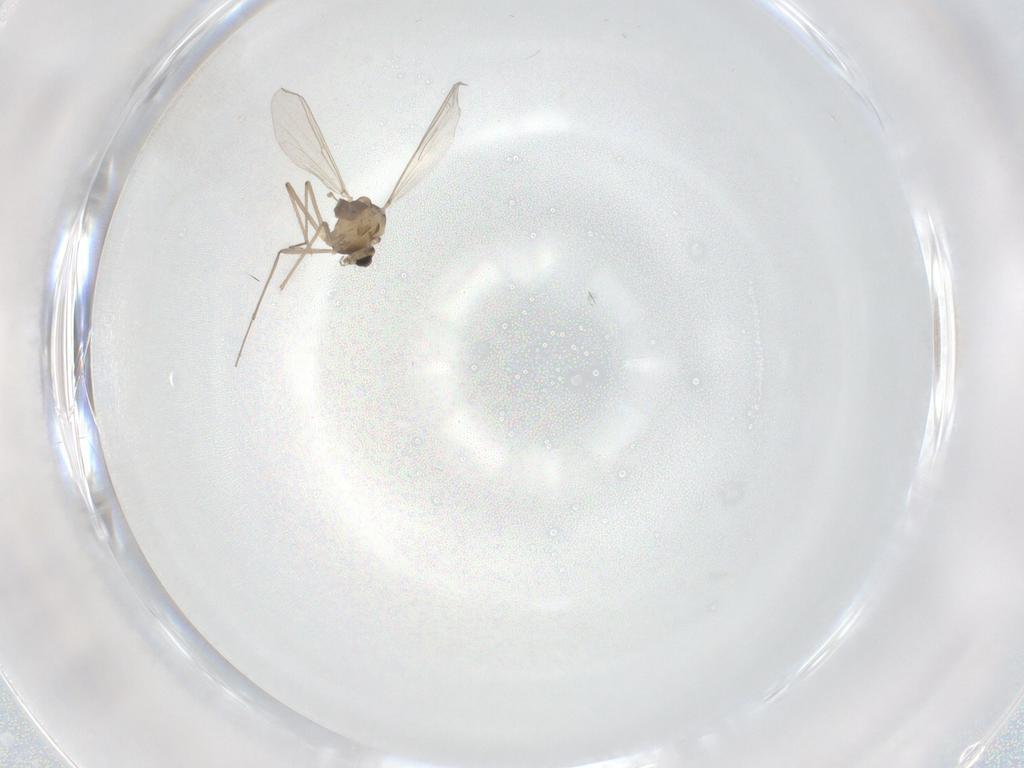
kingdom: Animalia
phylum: Arthropoda
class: Insecta
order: Diptera
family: Chironomidae
